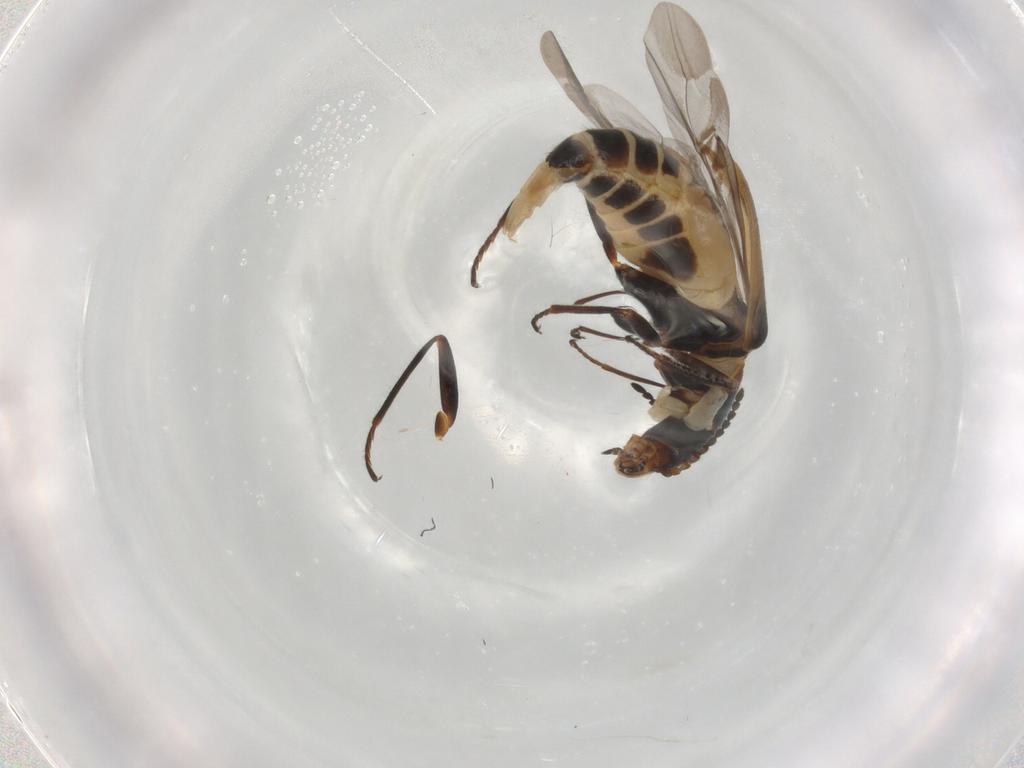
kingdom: Animalia
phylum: Arthropoda
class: Insecta
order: Coleoptera
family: Melyridae
